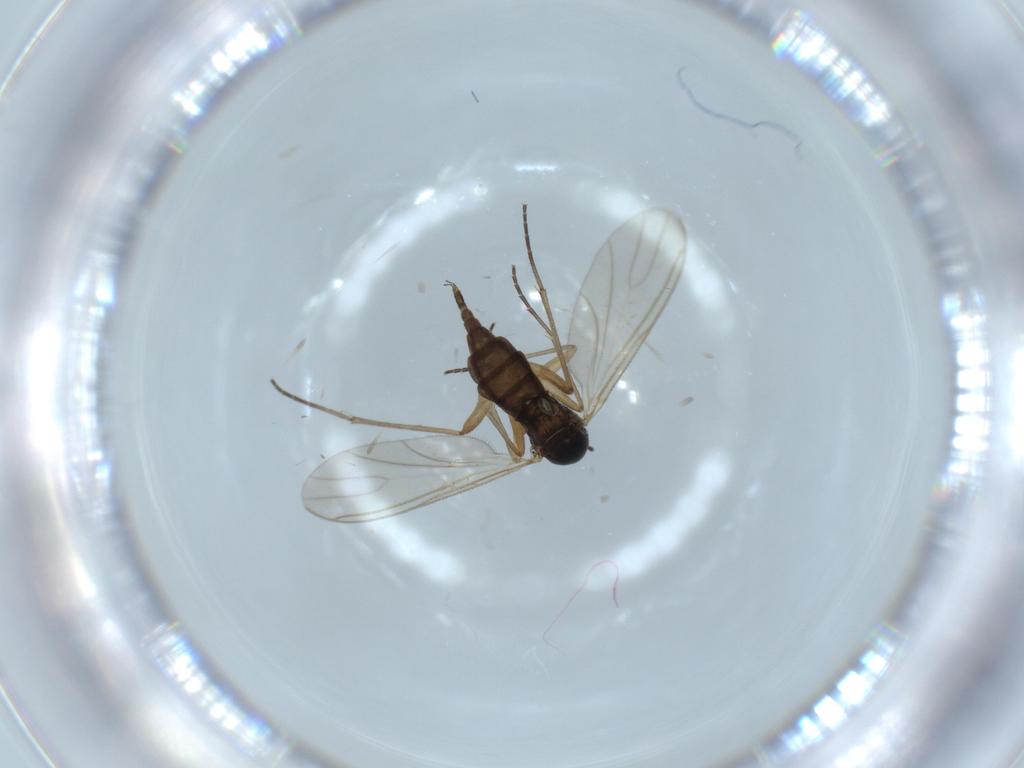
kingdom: Animalia
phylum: Arthropoda
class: Insecta
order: Diptera
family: Sciaridae
